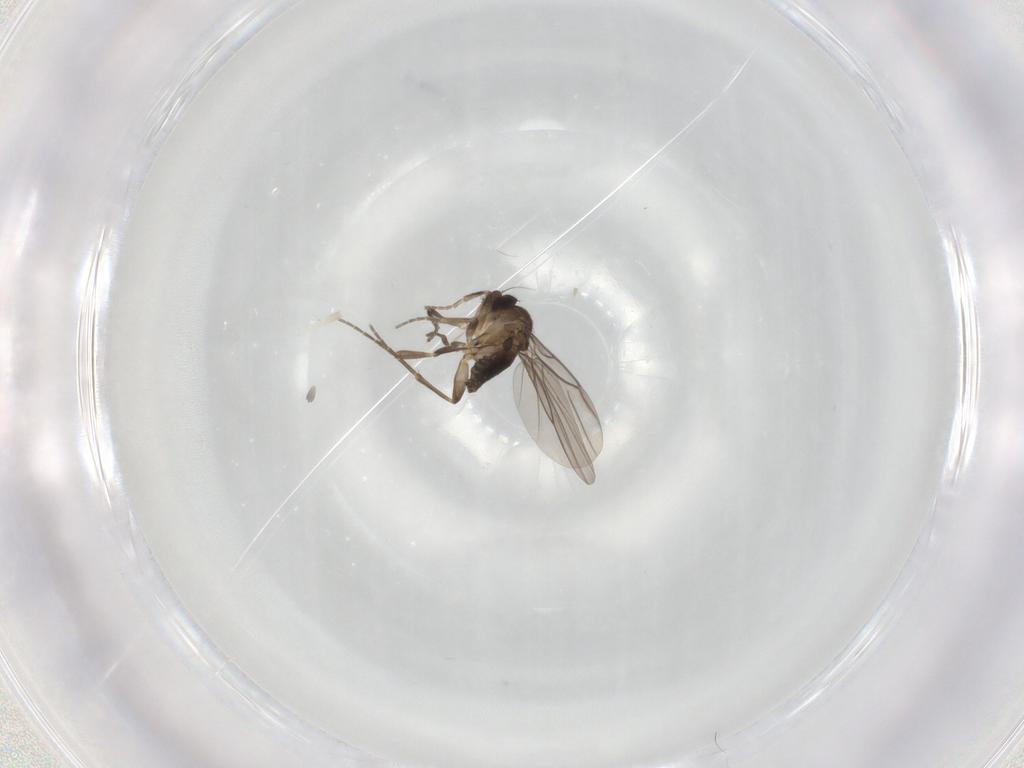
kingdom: Animalia
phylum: Arthropoda
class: Insecta
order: Diptera
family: Phoridae
